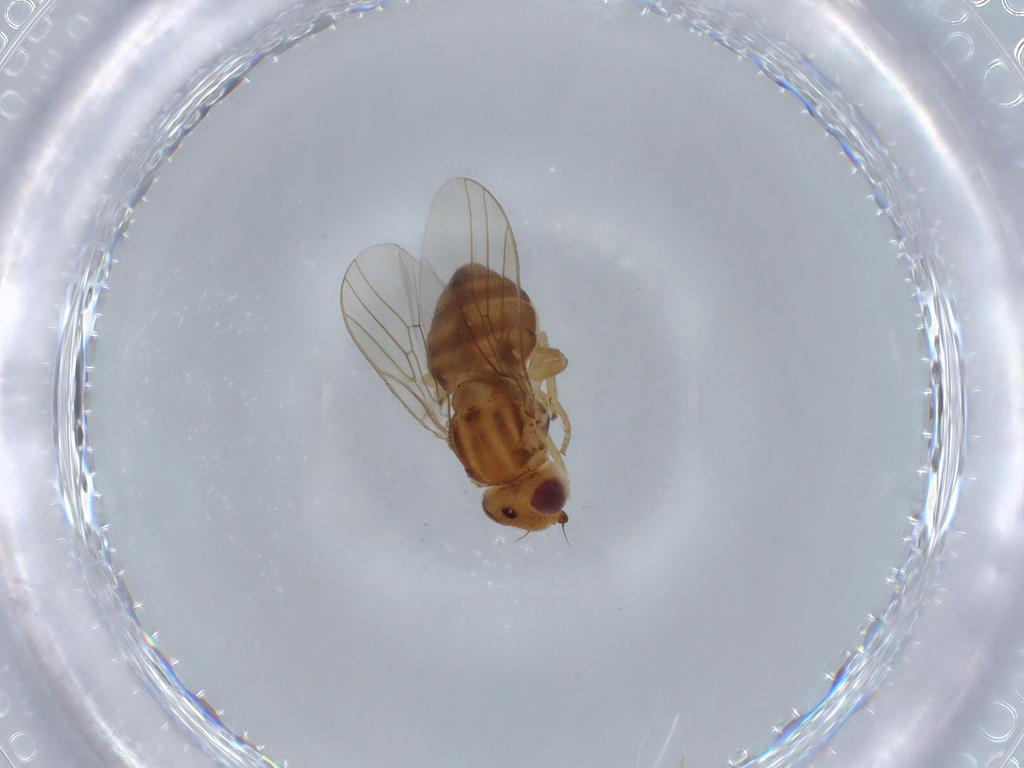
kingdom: Animalia
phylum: Arthropoda
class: Insecta
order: Diptera
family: Chloropidae
